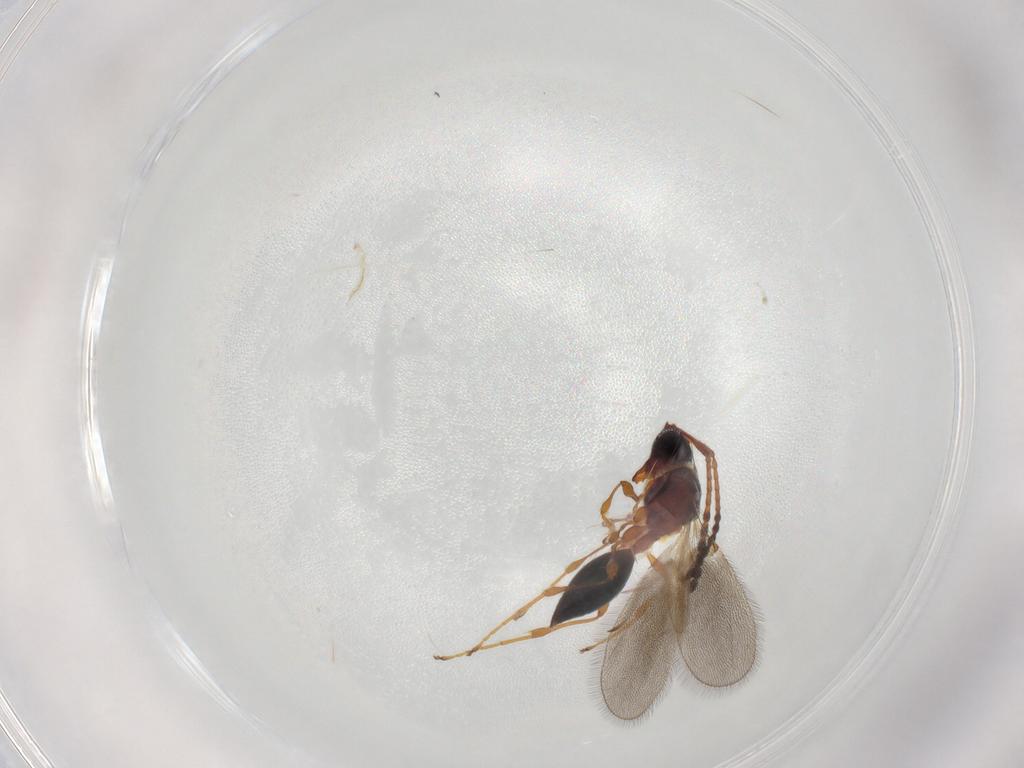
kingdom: Animalia
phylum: Arthropoda
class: Insecta
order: Hymenoptera
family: Diapriidae
